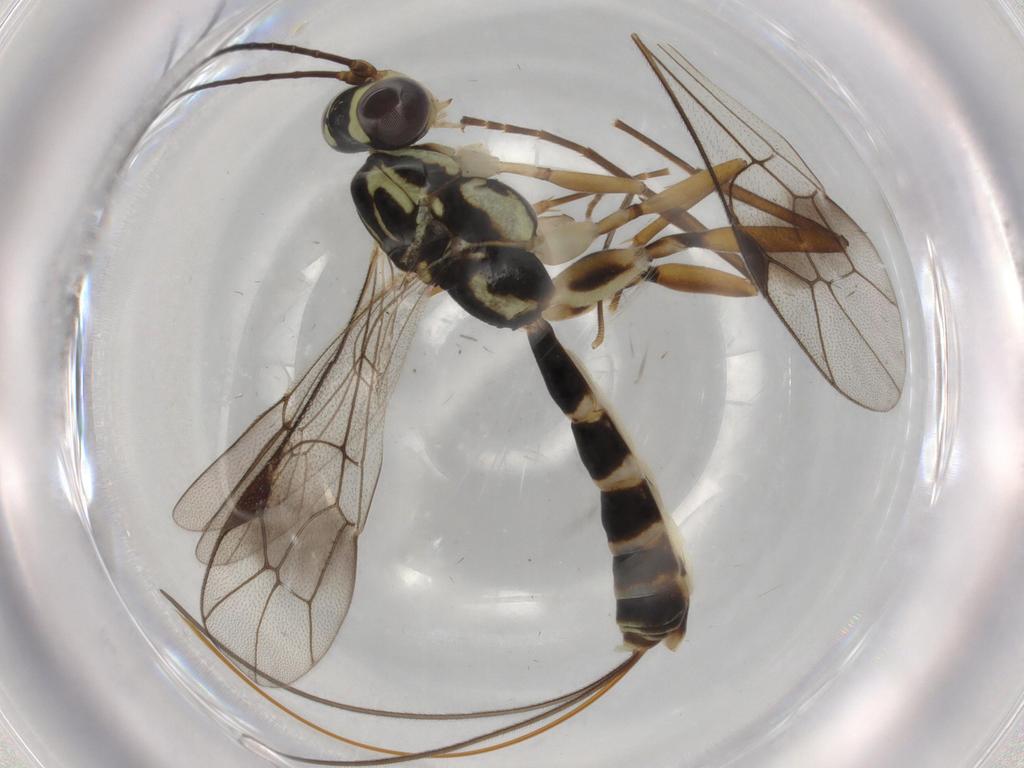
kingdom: Animalia
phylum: Arthropoda
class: Insecta
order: Hymenoptera
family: Scelionidae
